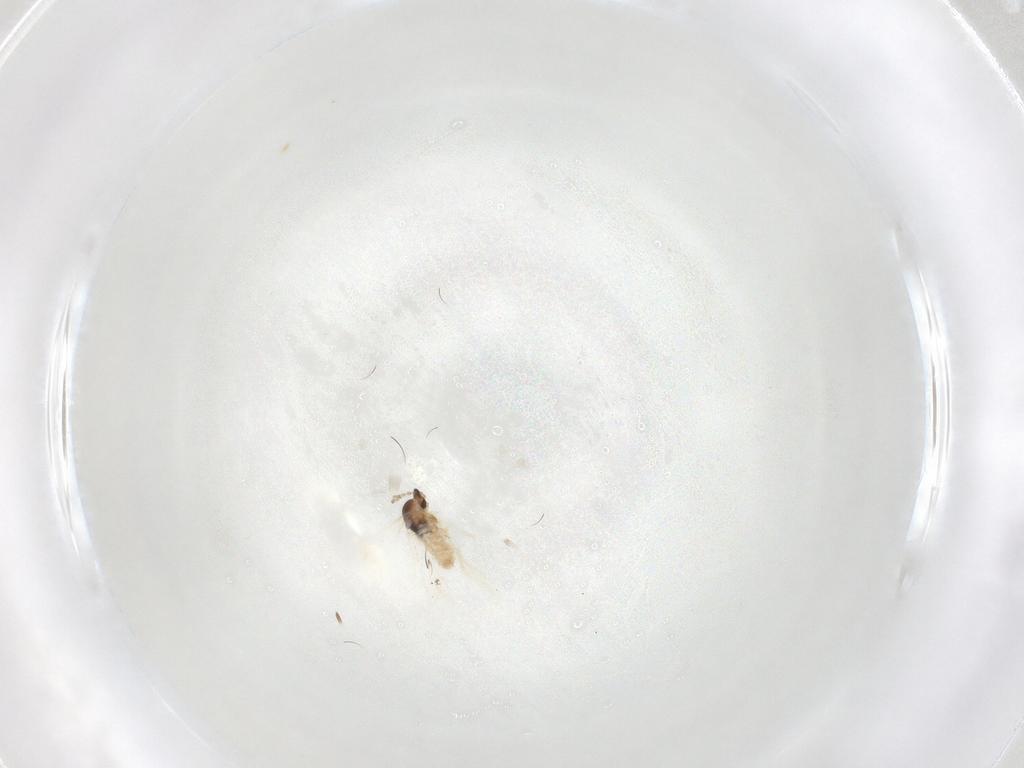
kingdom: Animalia
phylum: Arthropoda
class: Insecta
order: Diptera
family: Cecidomyiidae
